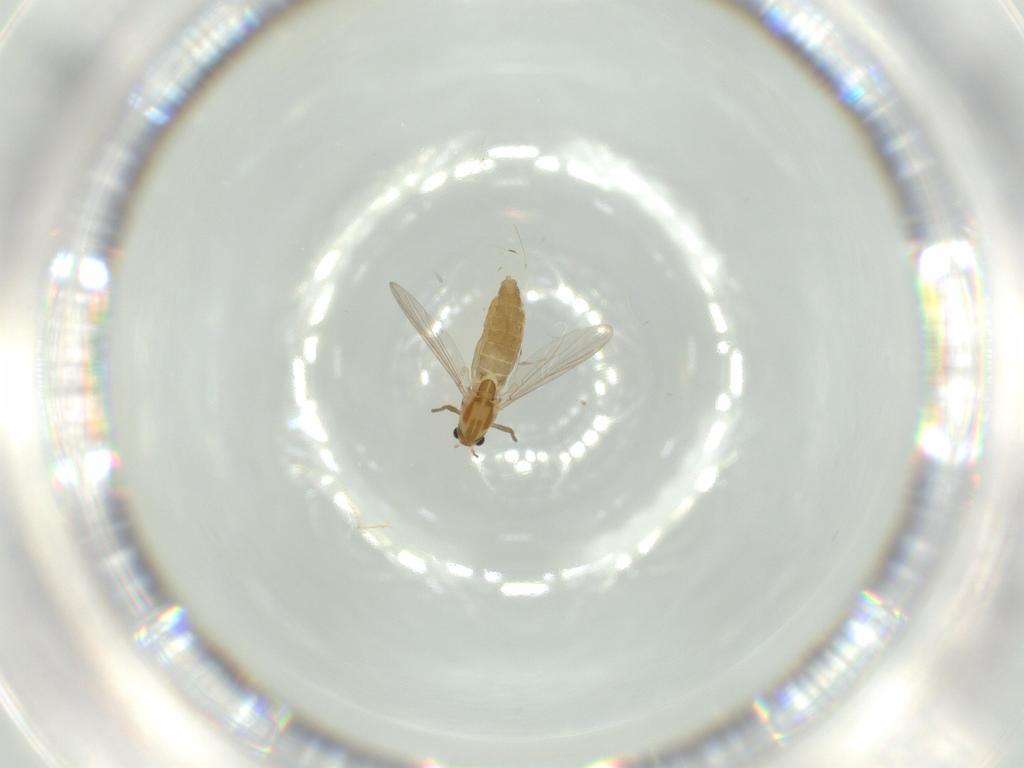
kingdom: Animalia
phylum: Arthropoda
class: Insecta
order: Diptera
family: Chironomidae
